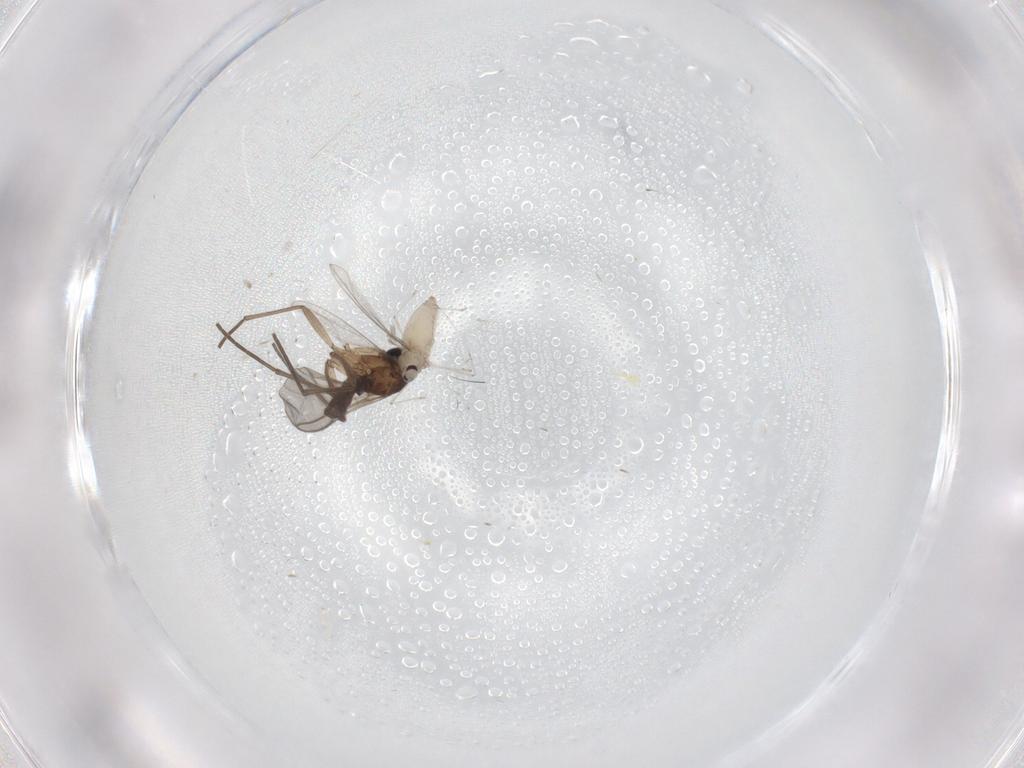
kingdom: Animalia
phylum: Arthropoda
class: Insecta
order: Diptera
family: Sciaridae
